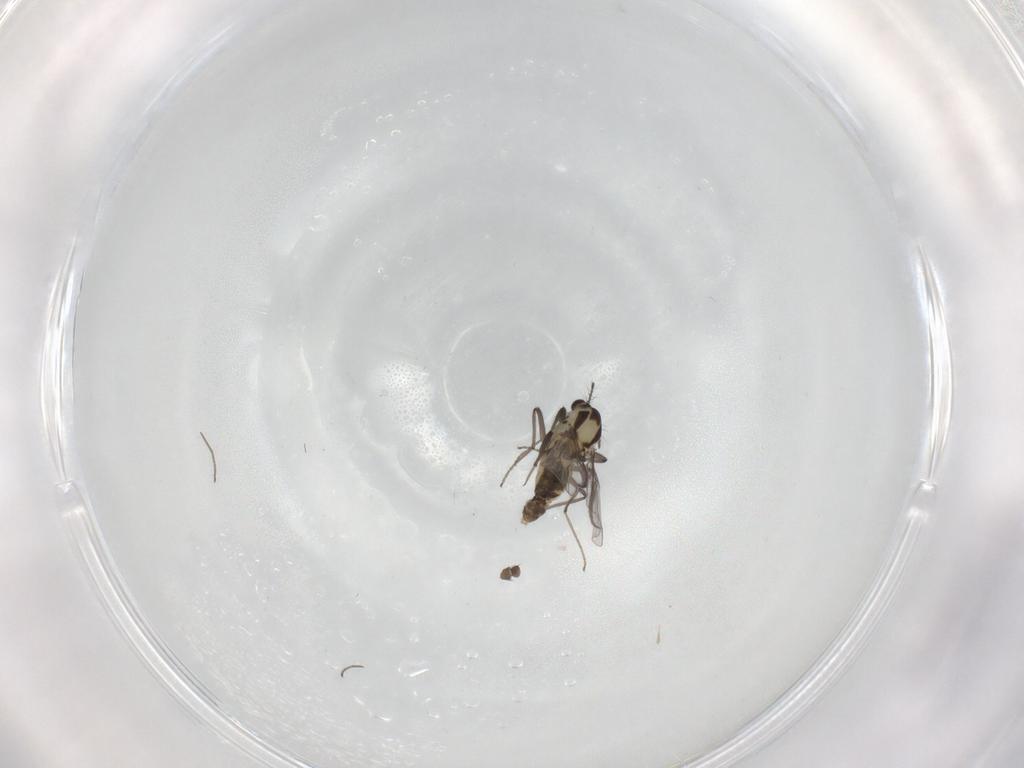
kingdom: Animalia
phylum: Arthropoda
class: Insecta
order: Diptera
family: Chironomidae
